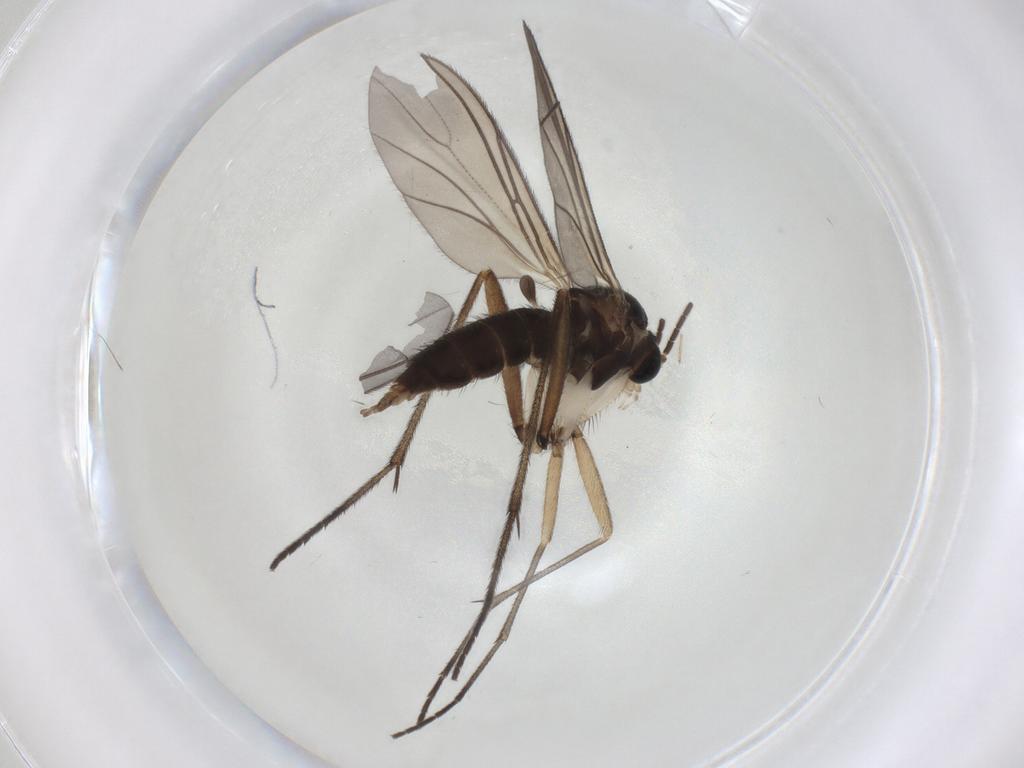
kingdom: Animalia
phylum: Arthropoda
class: Insecta
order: Diptera
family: Sciaridae
